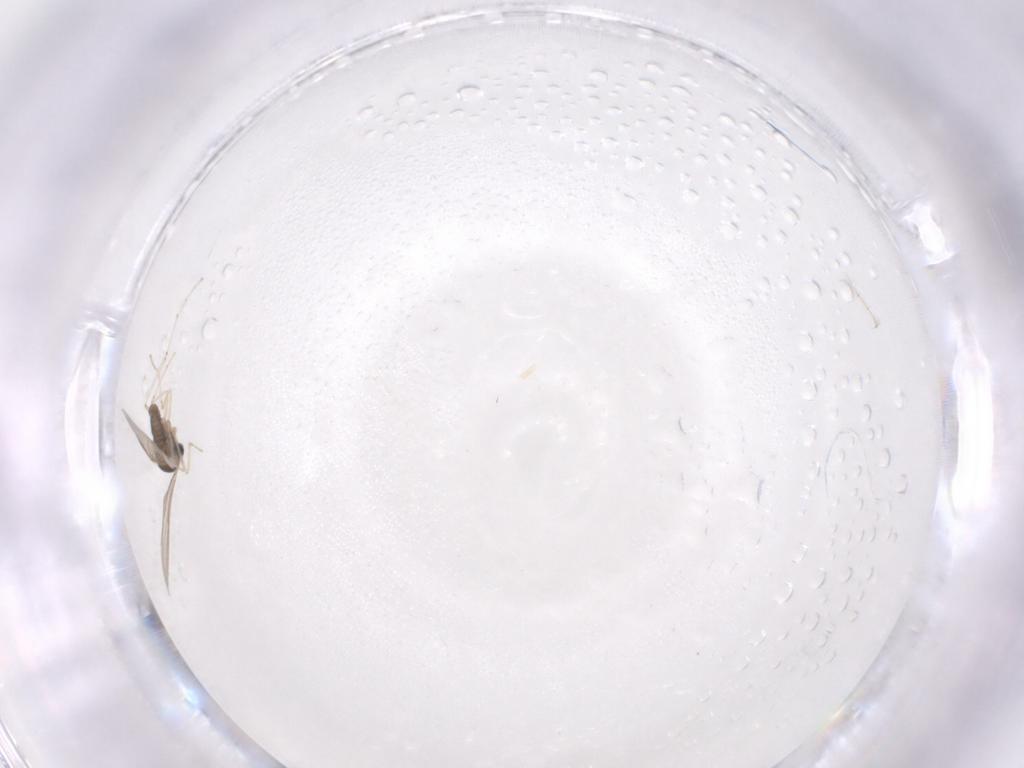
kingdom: Animalia
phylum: Arthropoda
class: Insecta
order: Diptera
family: Cecidomyiidae
